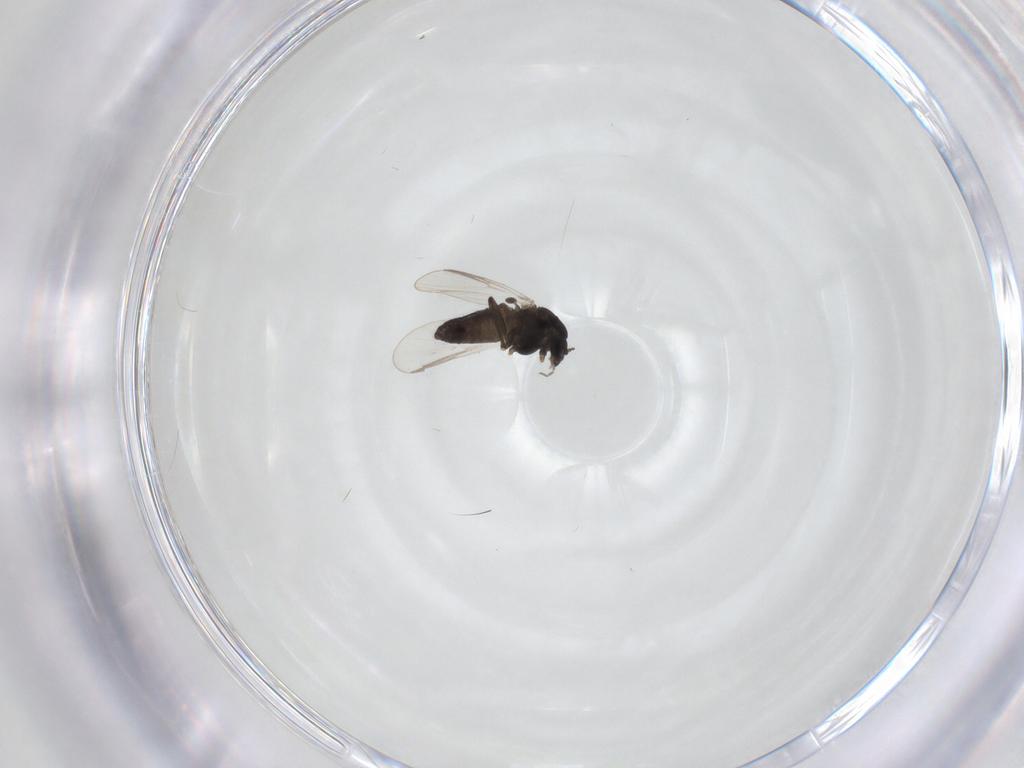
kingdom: Animalia
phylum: Arthropoda
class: Insecta
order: Diptera
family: Chironomidae
